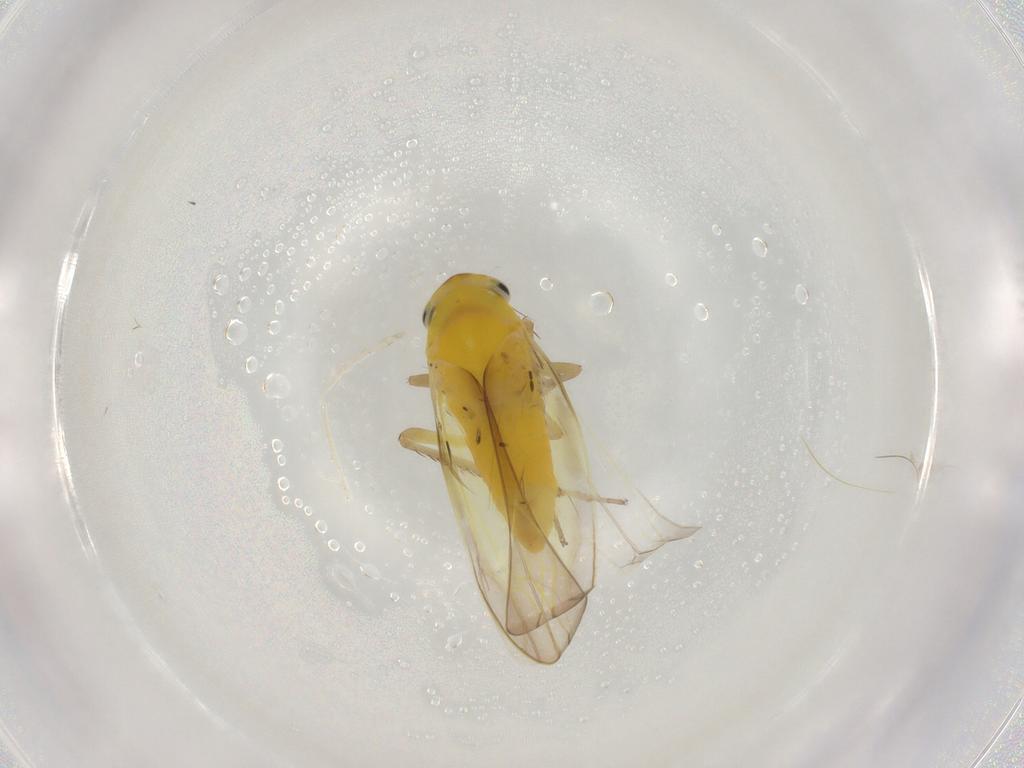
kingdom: Animalia
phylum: Arthropoda
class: Insecta
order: Hemiptera
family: Cicadellidae
